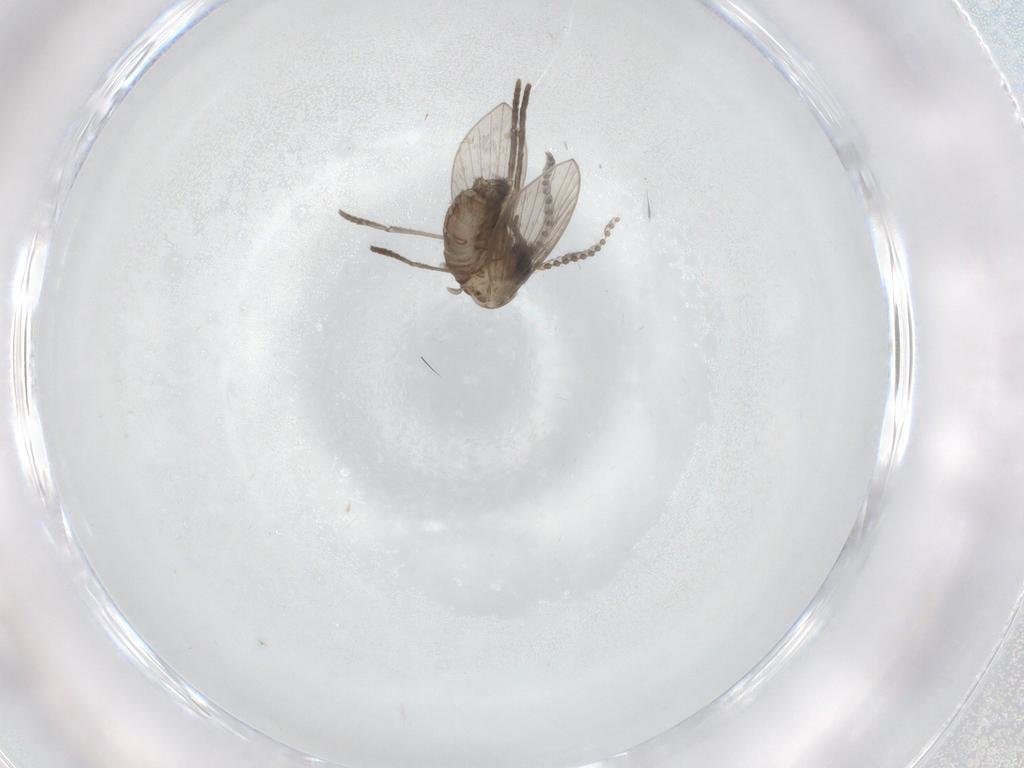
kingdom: Animalia
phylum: Arthropoda
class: Insecta
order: Diptera
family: Psychodidae
